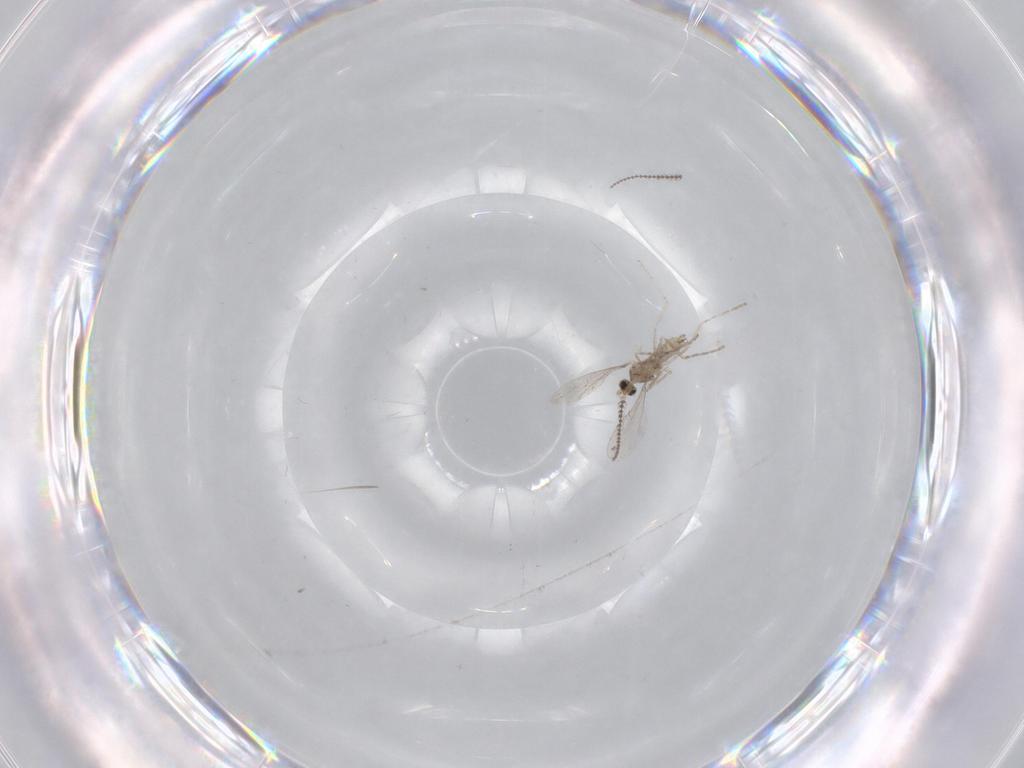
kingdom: Animalia
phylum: Arthropoda
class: Insecta
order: Diptera
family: Cecidomyiidae
